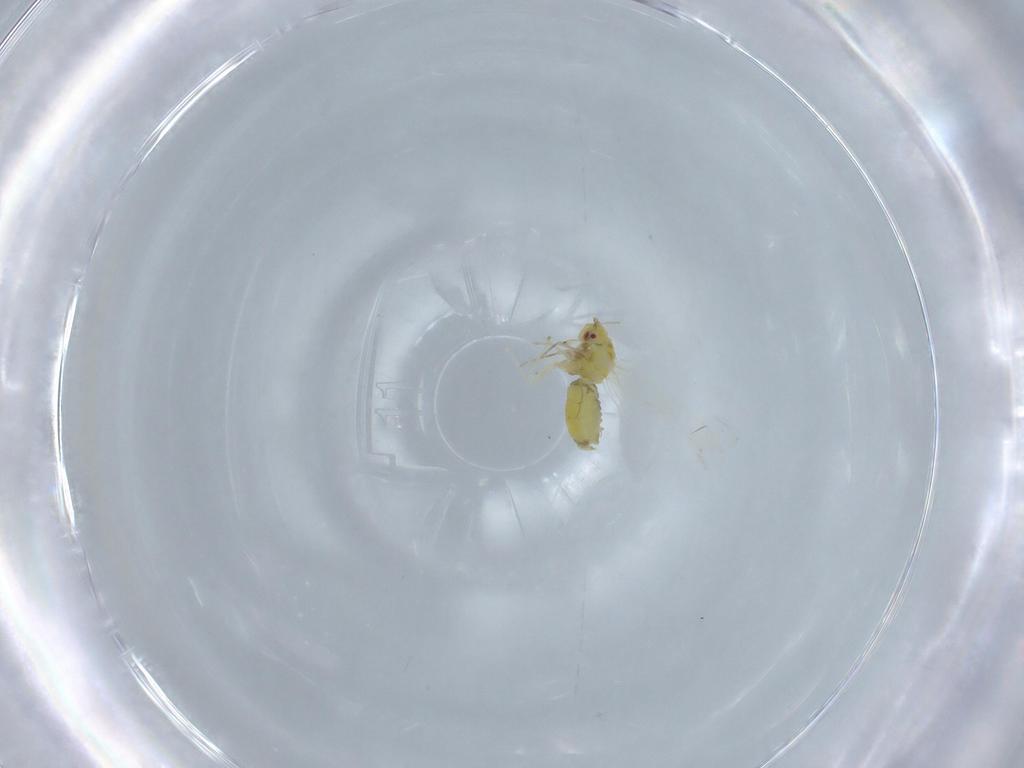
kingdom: Animalia
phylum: Arthropoda
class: Insecta
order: Hemiptera
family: Aleyrodidae
